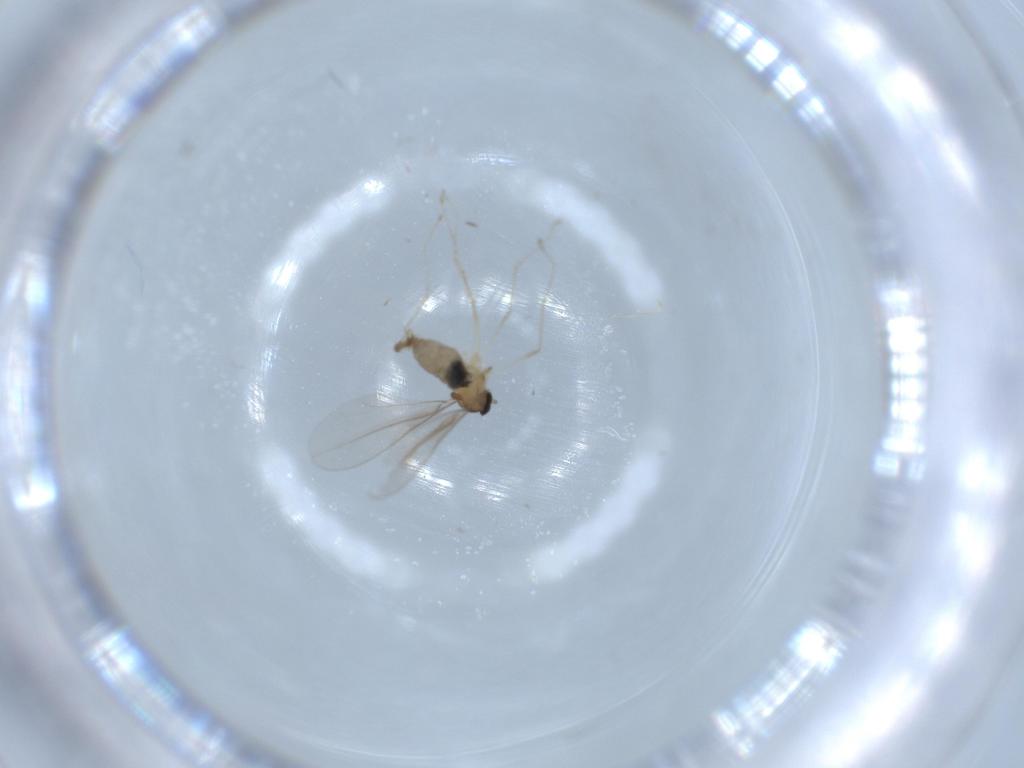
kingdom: Animalia
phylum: Arthropoda
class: Insecta
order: Diptera
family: Cecidomyiidae
